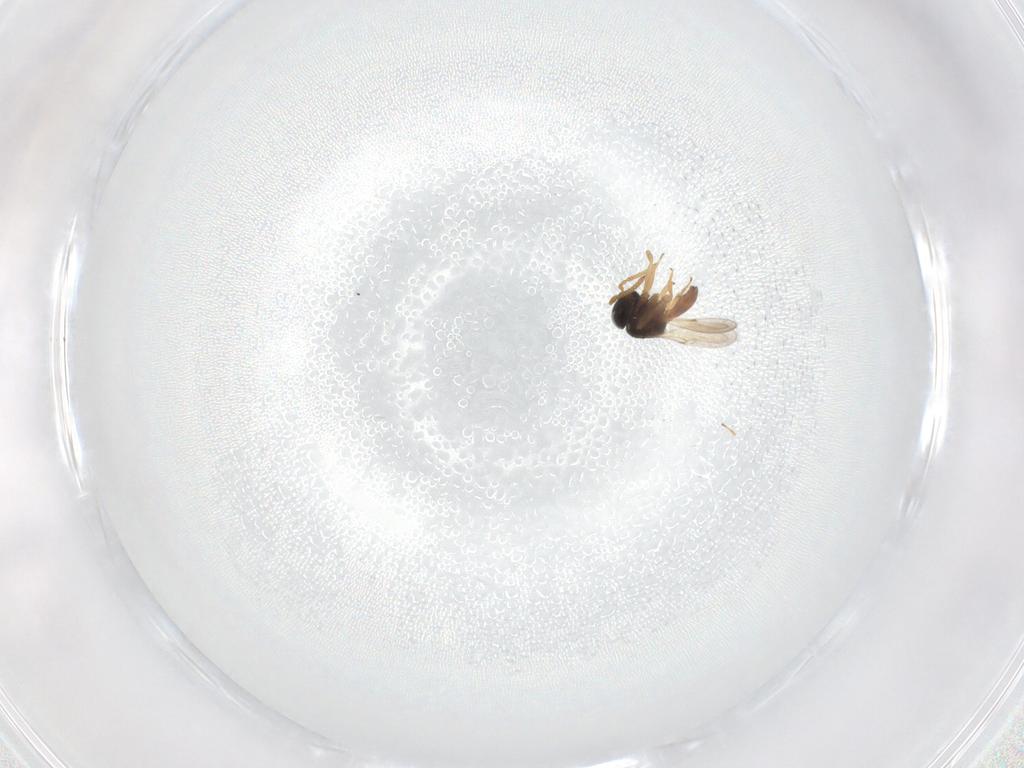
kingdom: Animalia
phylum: Arthropoda
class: Insecta
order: Hymenoptera
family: Scelionidae
